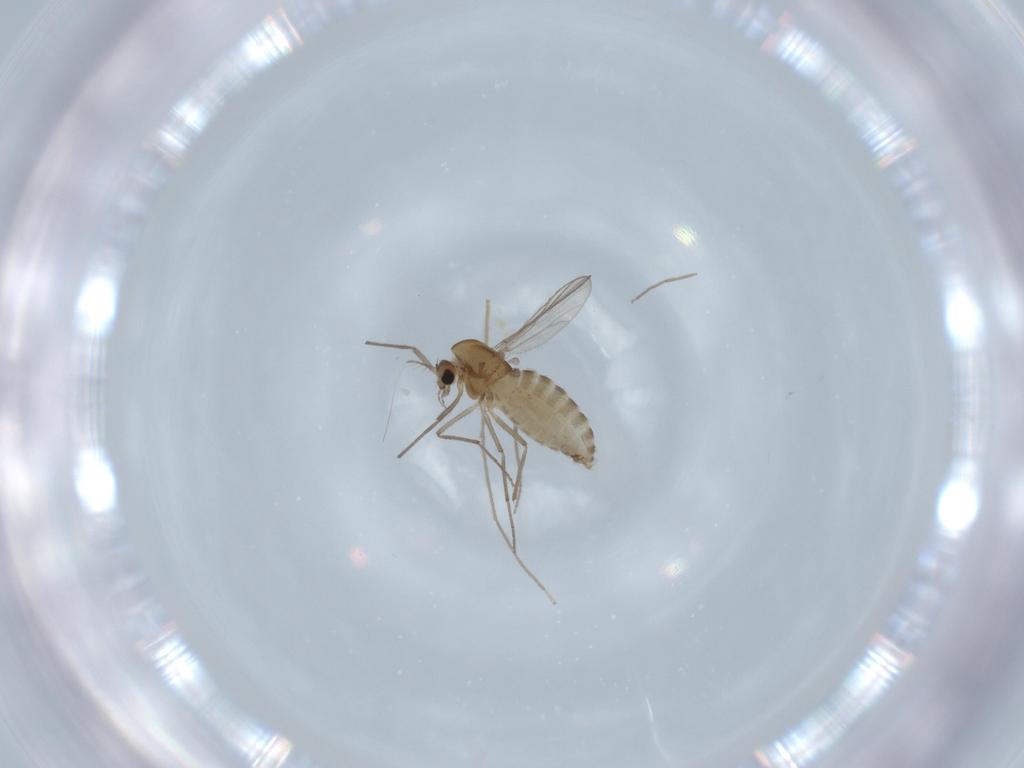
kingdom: Animalia
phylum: Arthropoda
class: Insecta
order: Diptera
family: Chironomidae
